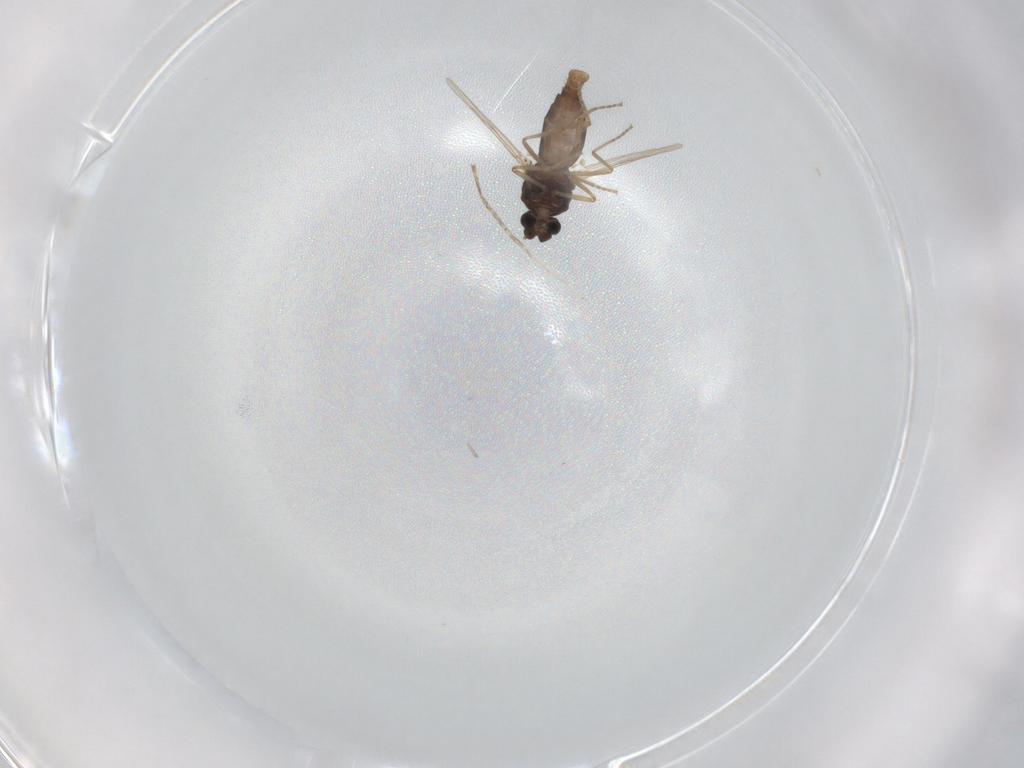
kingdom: Animalia
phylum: Arthropoda
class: Insecta
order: Diptera
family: Ceratopogonidae
